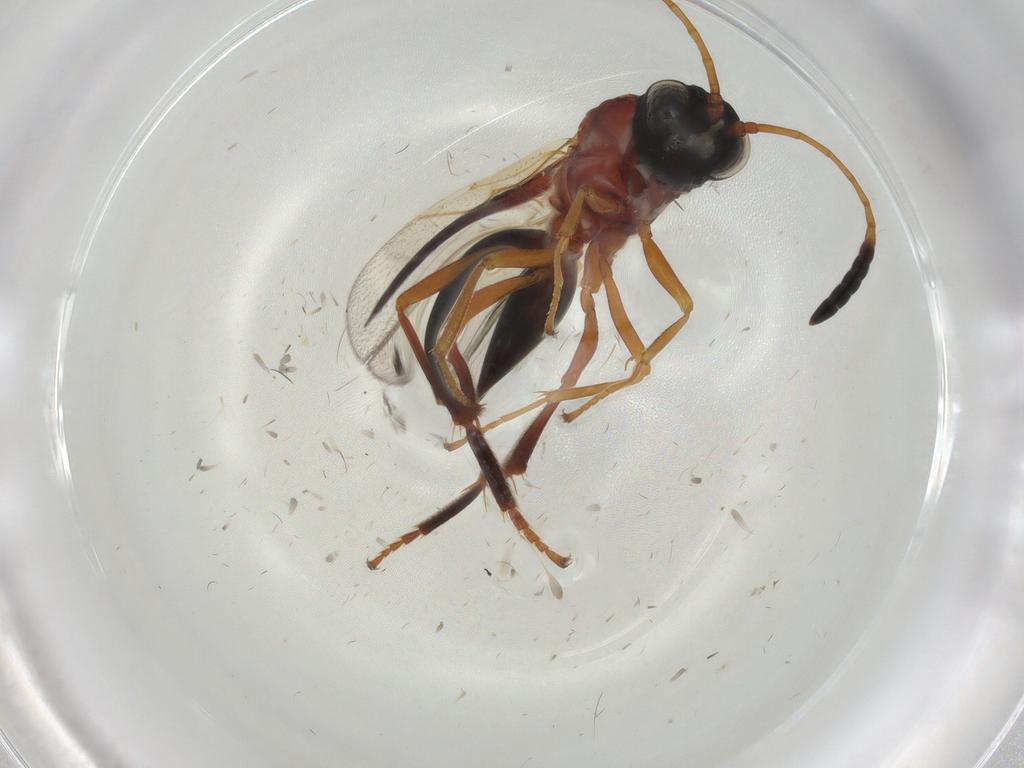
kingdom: Animalia
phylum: Arthropoda
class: Insecta
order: Hymenoptera
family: Figitidae
